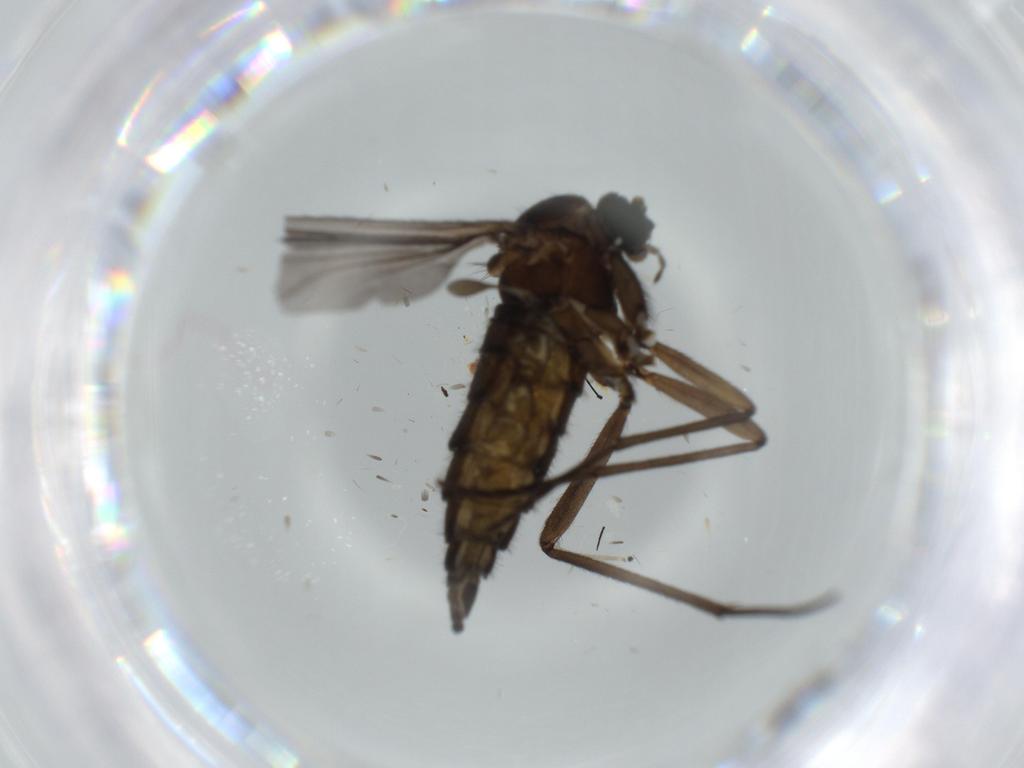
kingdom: Animalia
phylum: Arthropoda
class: Insecta
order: Diptera
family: Sciaridae
